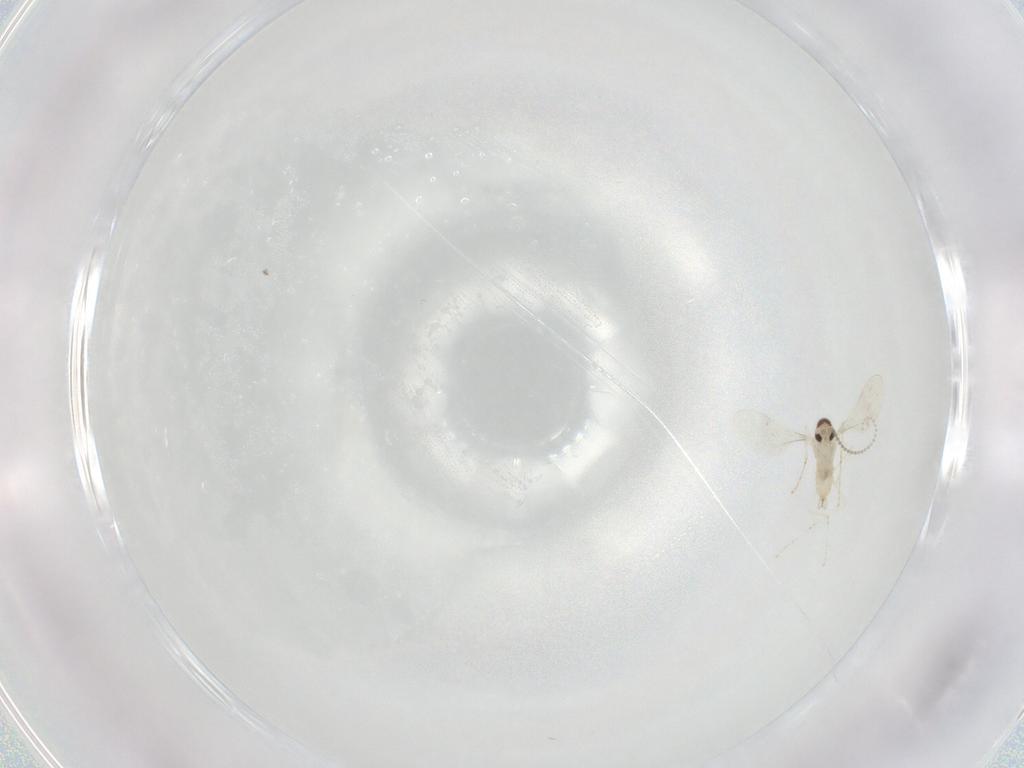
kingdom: Animalia
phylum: Arthropoda
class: Insecta
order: Diptera
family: Cecidomyiidae
